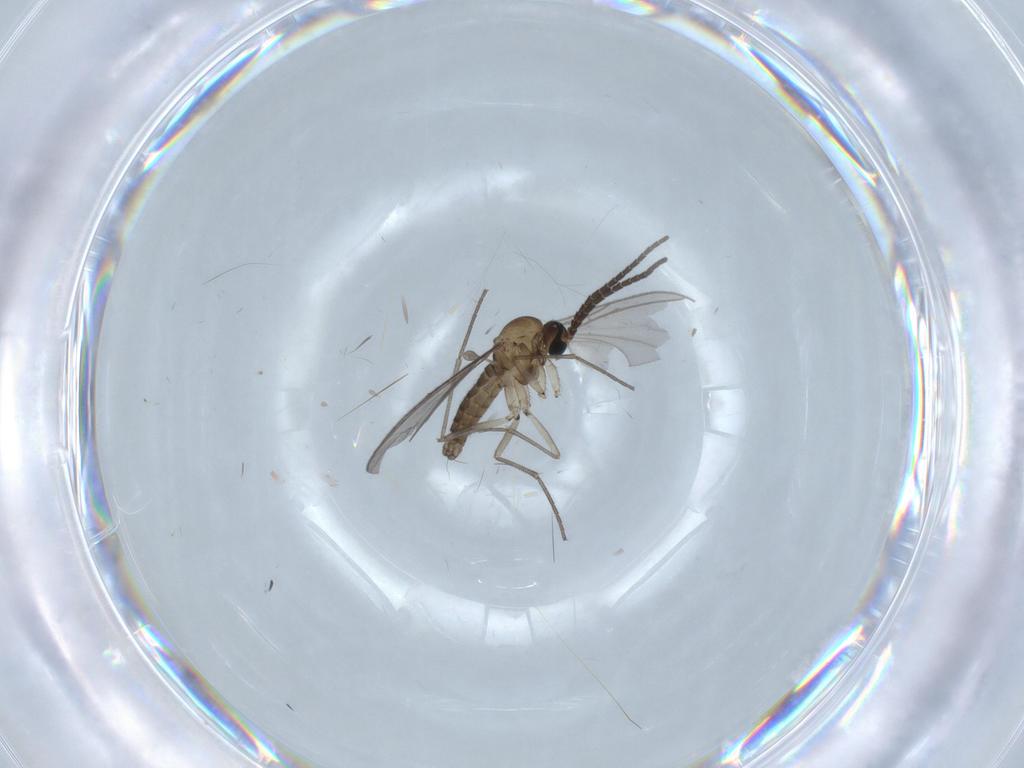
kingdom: Animalia
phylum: Arthropoda
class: Insecta
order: Diptera
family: Sciaridae
